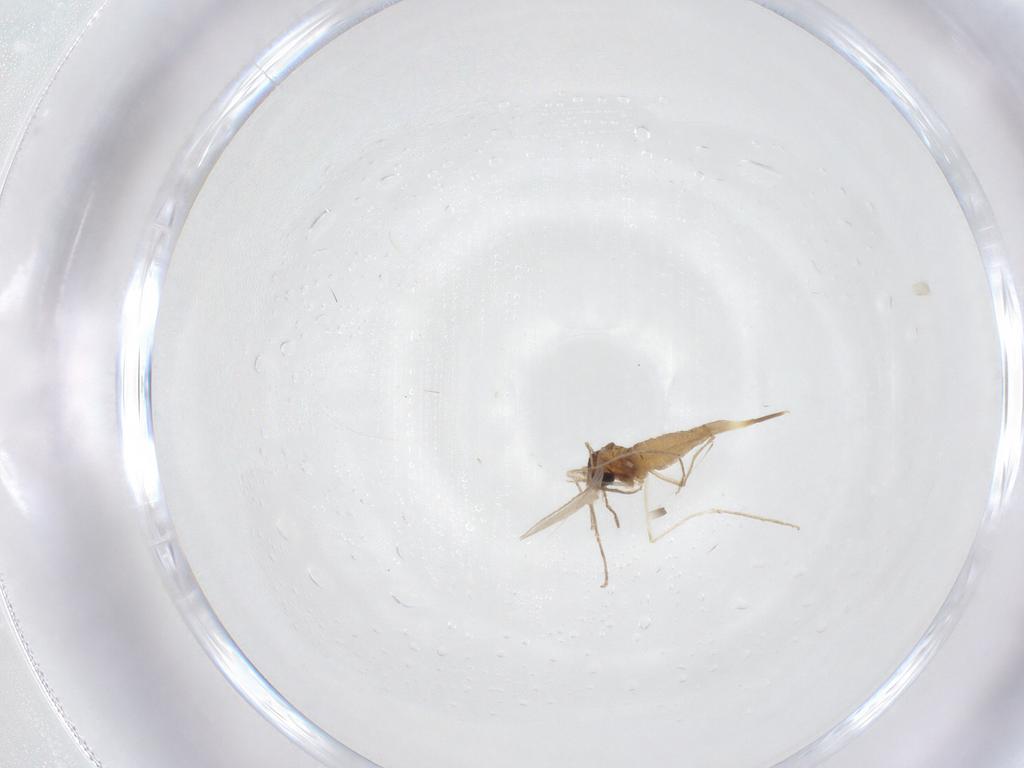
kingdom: Animalia
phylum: Arthropoda
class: Insecta
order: Diptera
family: Cecidomyiidae
